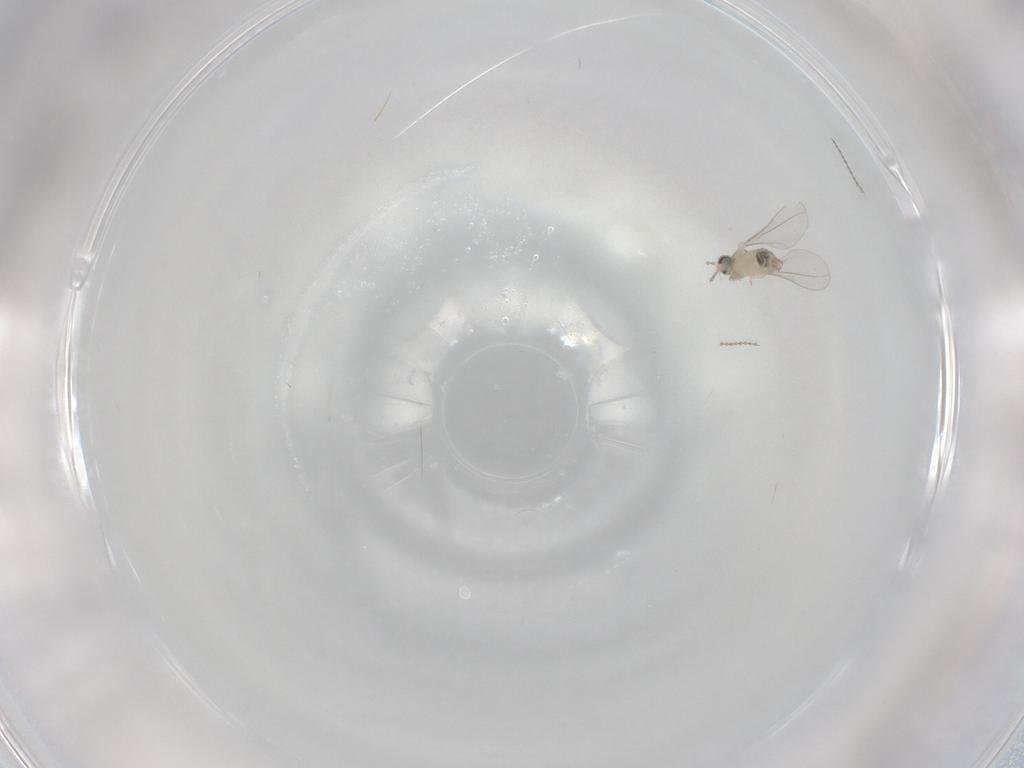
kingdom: Animalia
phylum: Arthropoda
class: Insecta
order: Diptera
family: Cecidomyiidae
